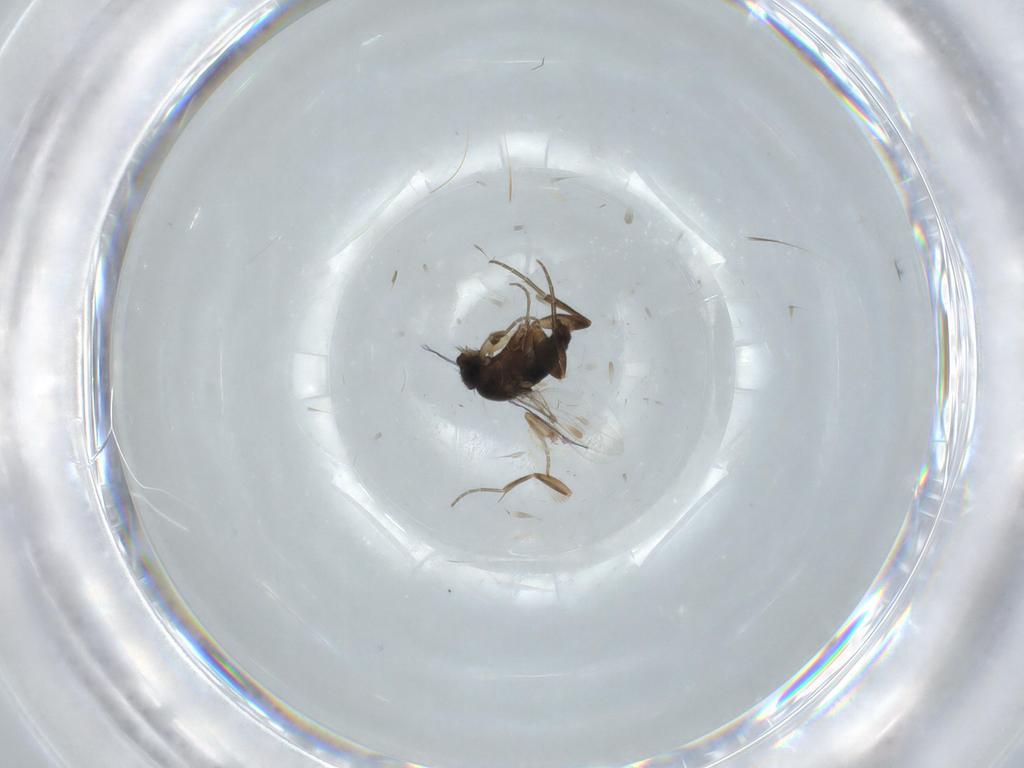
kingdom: Animalia
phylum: Arthropoda
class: Insecta
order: Diptera
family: Phoridae
